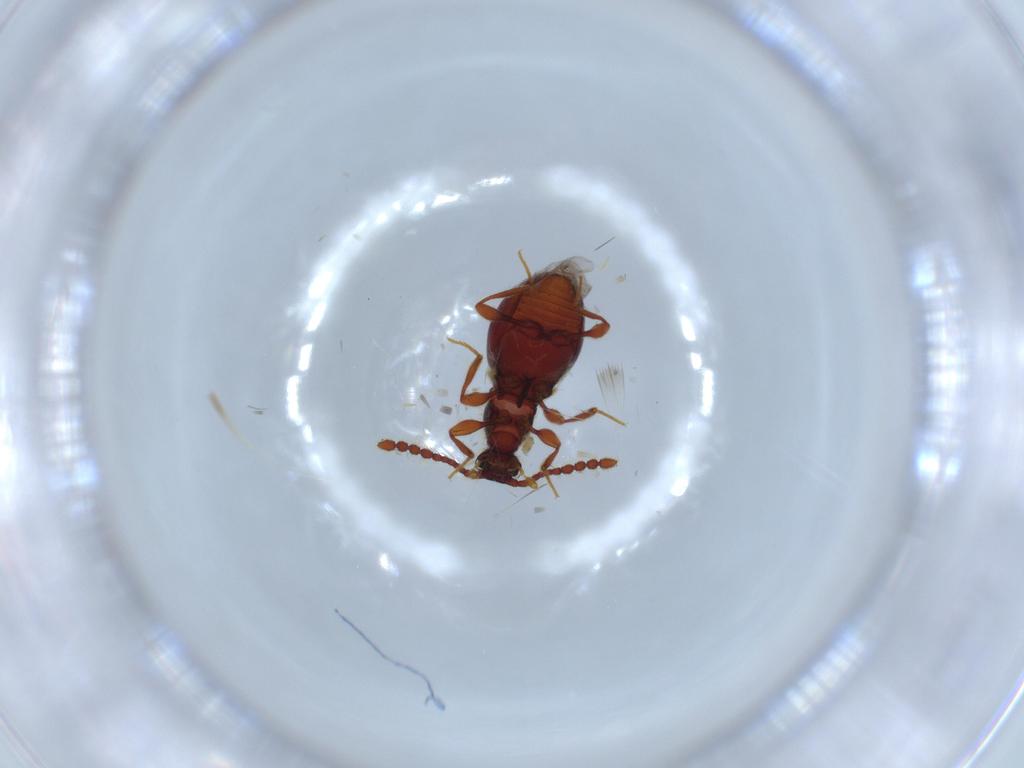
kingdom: Animalia
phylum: Arthropoda
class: Insecta
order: Coleoptera
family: Staphylinidae
